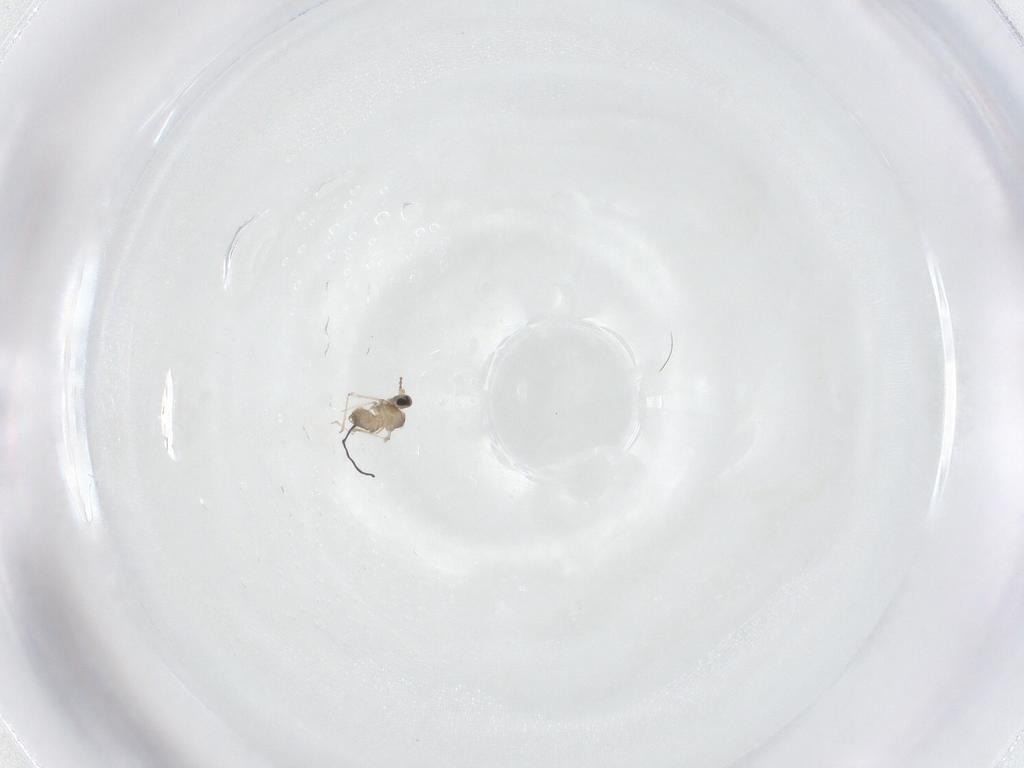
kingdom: Animalia
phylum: Arthropoda
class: Insecta
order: Diptera
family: Cecidomyiidae
